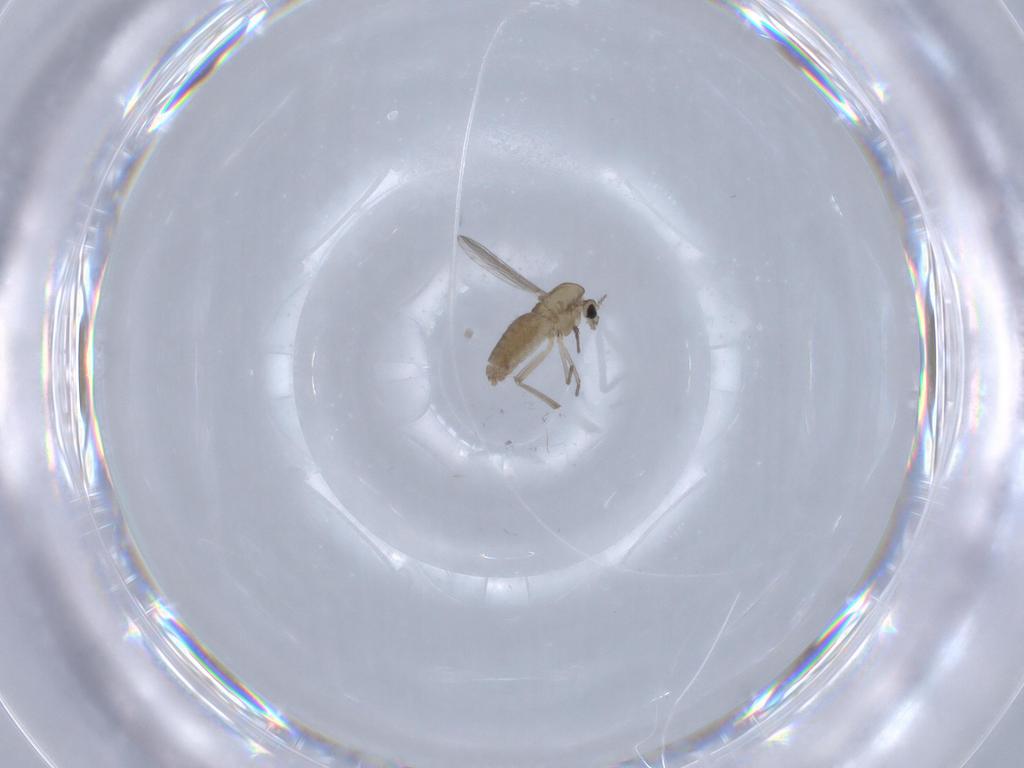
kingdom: Animalia
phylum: Arthropoda
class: Insecta
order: Diptera
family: Chironomidae
